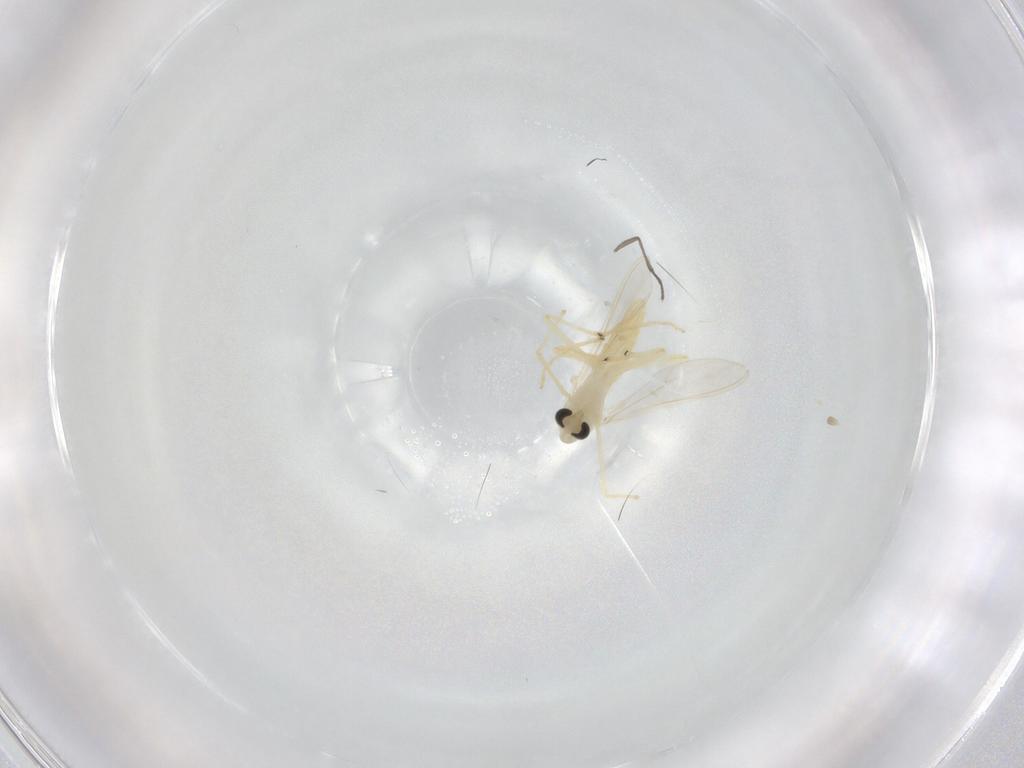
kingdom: Animalia
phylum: Arthropoda
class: Insecta
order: Diptera
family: Chironomidae
